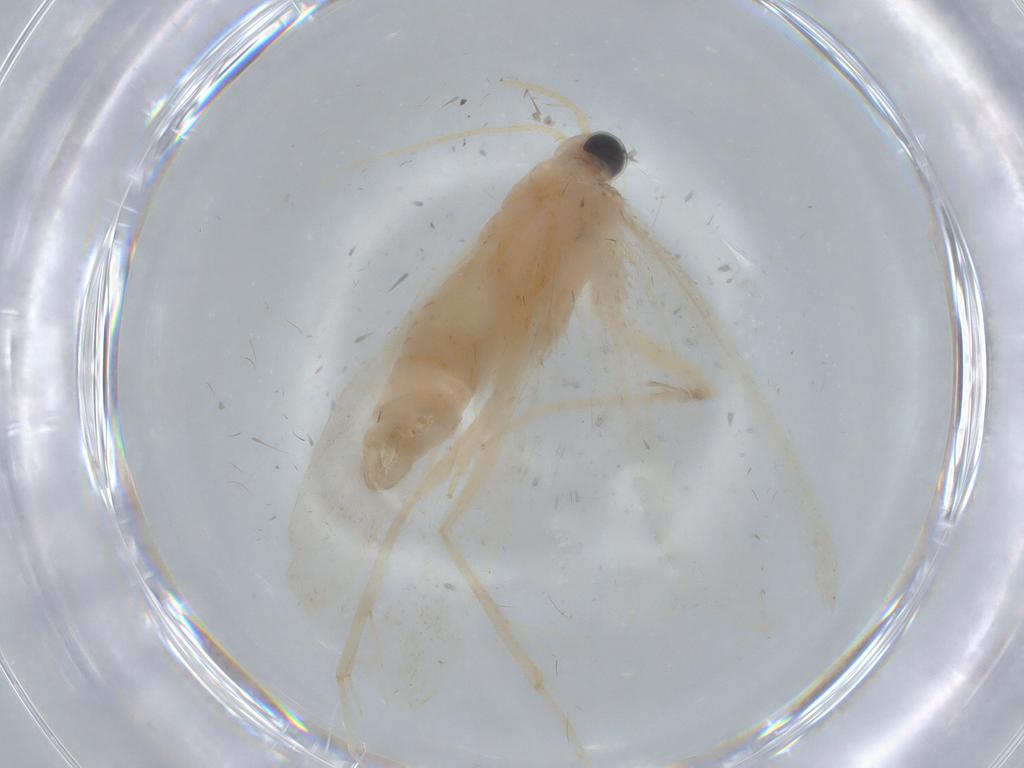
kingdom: Animalia
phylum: Arthropoda
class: Insecta
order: Lepidoptera
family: Crambidae
